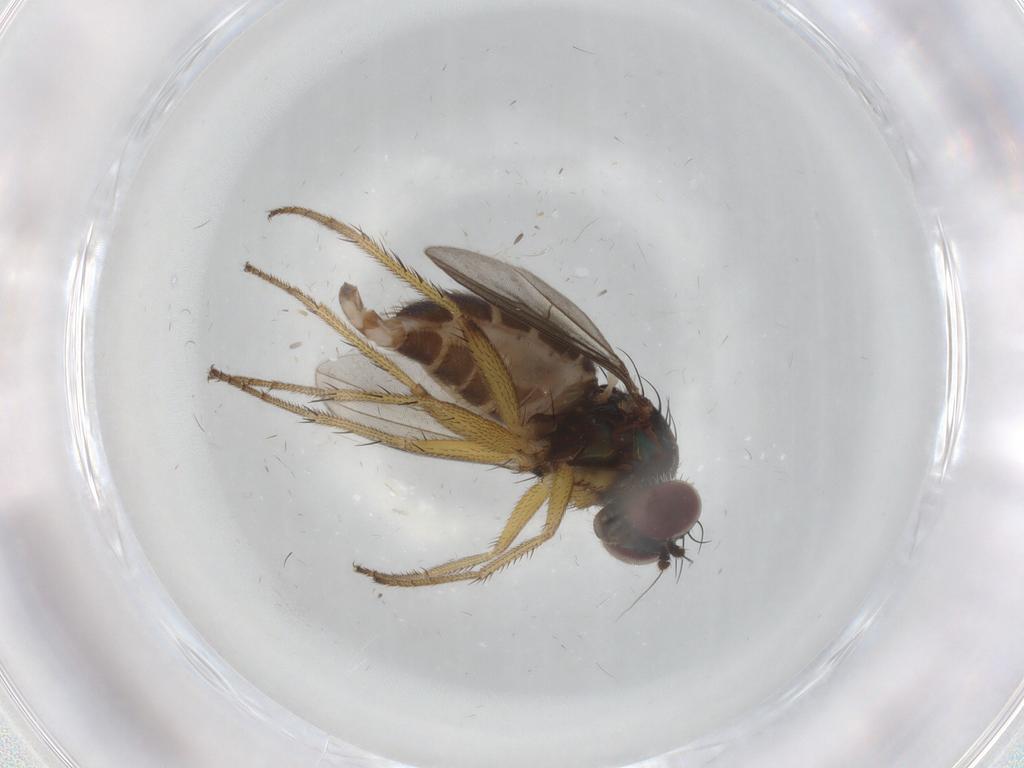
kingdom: Animalia
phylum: Arthropoda
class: Insecta
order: Diptera
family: Dolichopodidae
